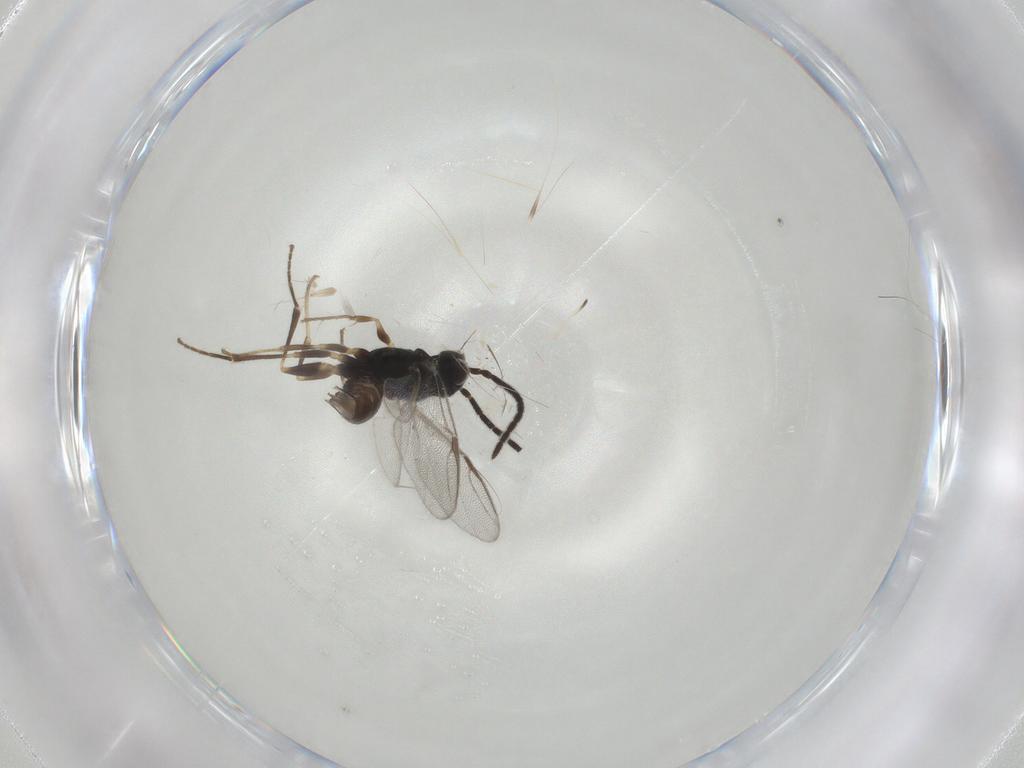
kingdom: Animalia
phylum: Arthropoda
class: Insecta
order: Hymenoptera
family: Dryinidae
